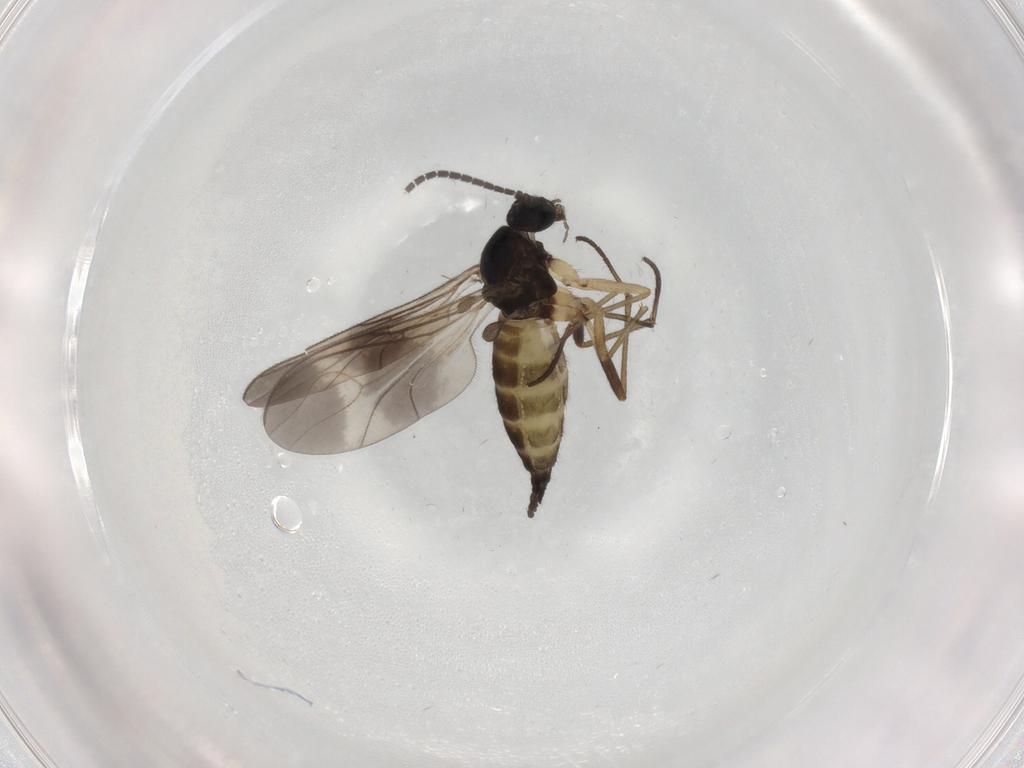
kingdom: Animalia
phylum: Arthropoda
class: Insecta
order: Diptera
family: Sciaridae
